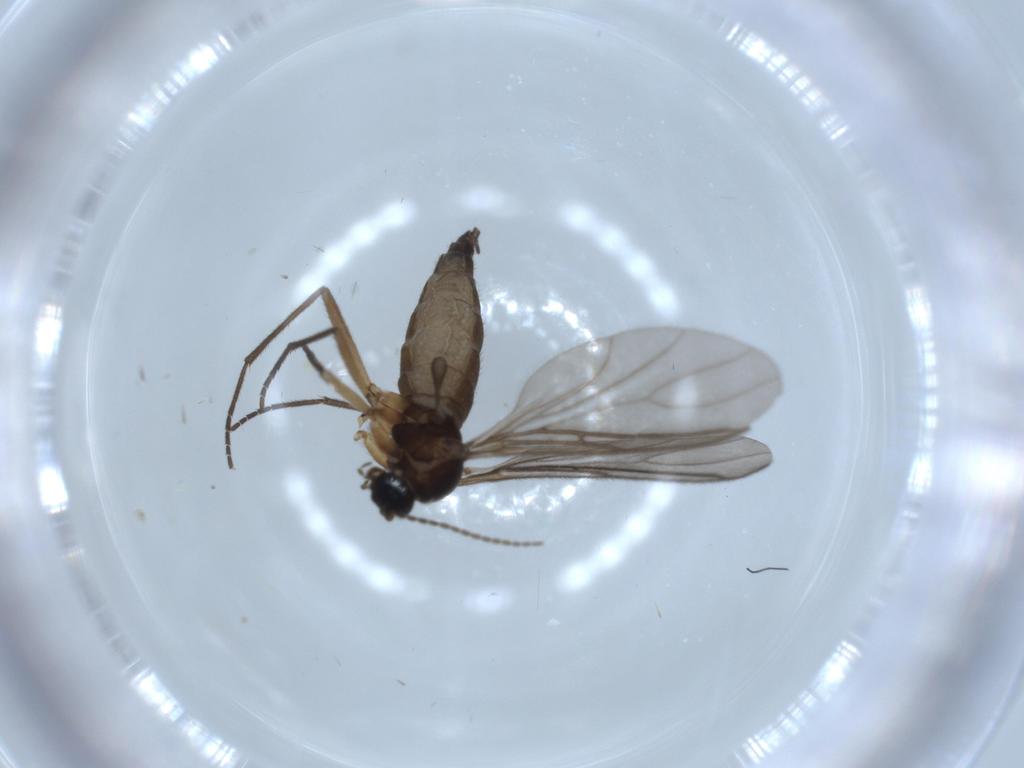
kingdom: Animalia
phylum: Arthropoda
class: Insecta
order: Diptera
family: Sciaridae
